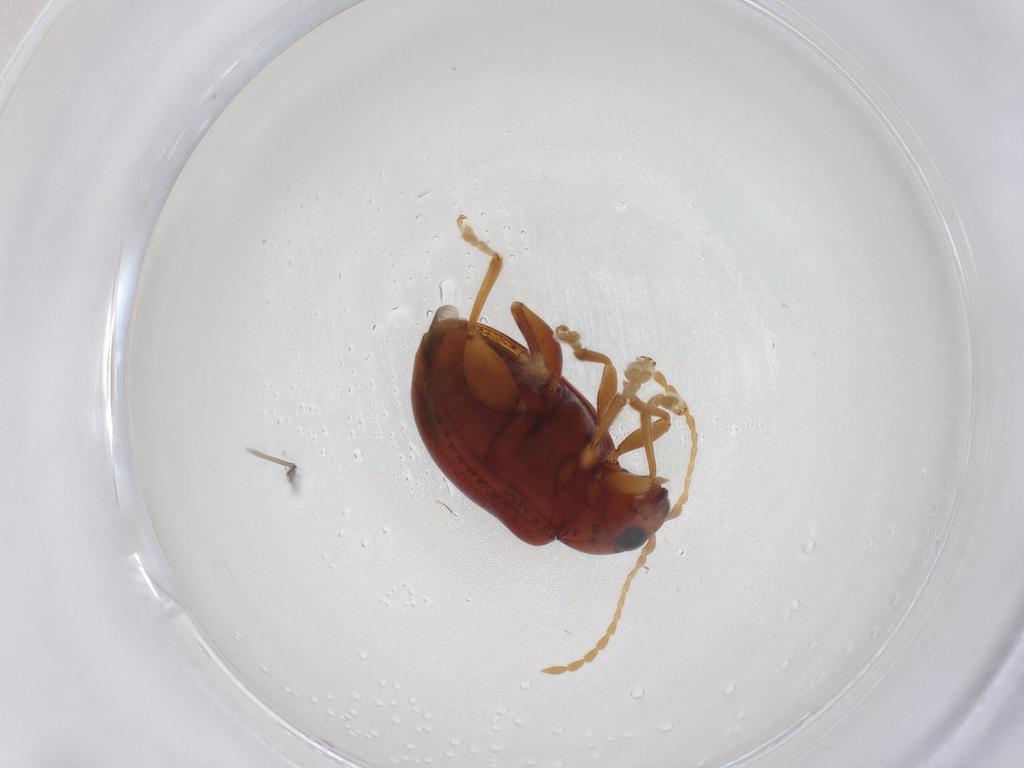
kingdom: Animalia
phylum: Arthropoda
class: Insecta
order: Coleoptera
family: Chrysomelidae
